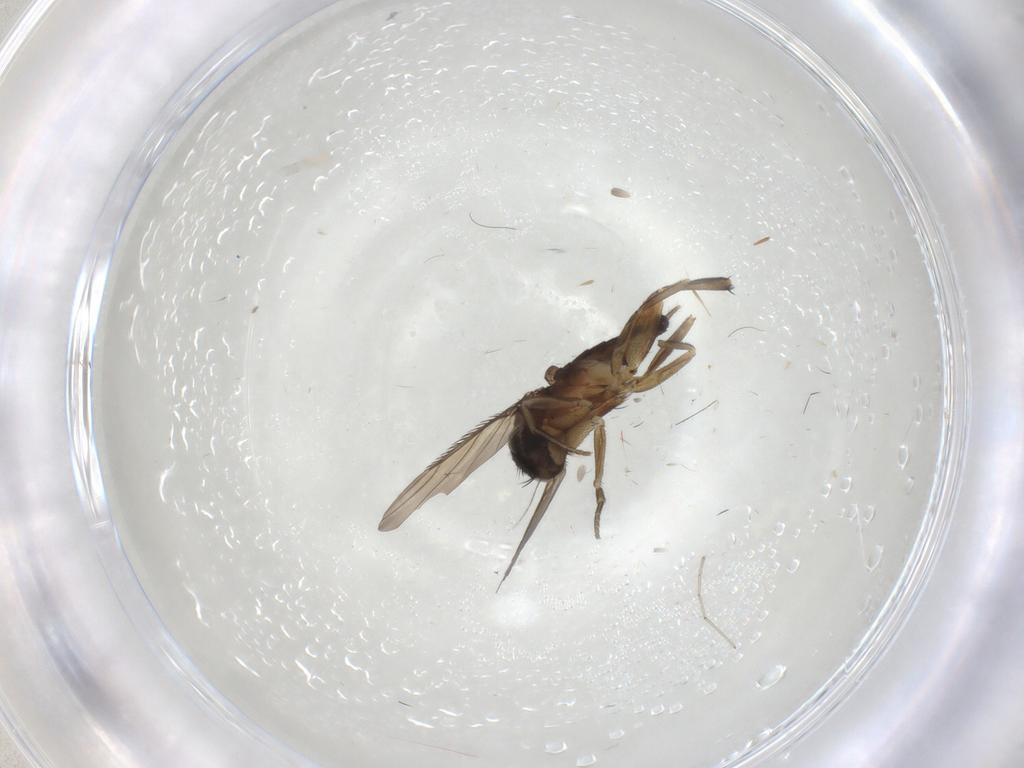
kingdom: Animalia
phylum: Arthropoda
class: Insecta
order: Diptera
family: Phoridae
